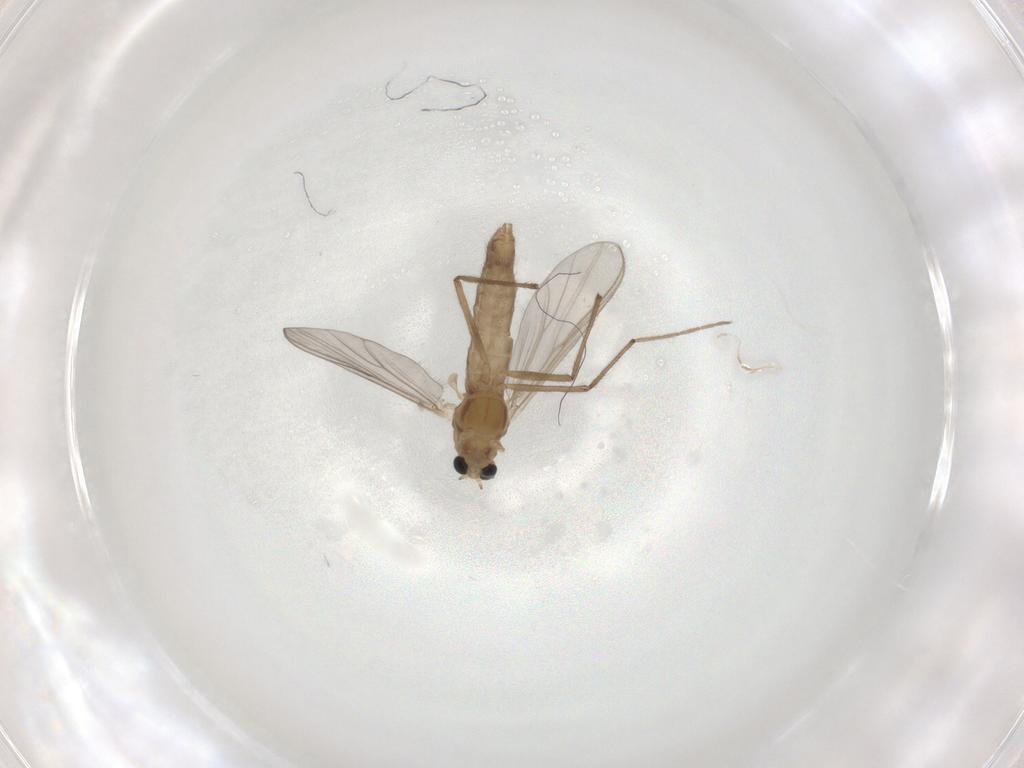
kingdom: Animalia
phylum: Arthropoda
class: Insecta
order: Diptera
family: Chironomidae
